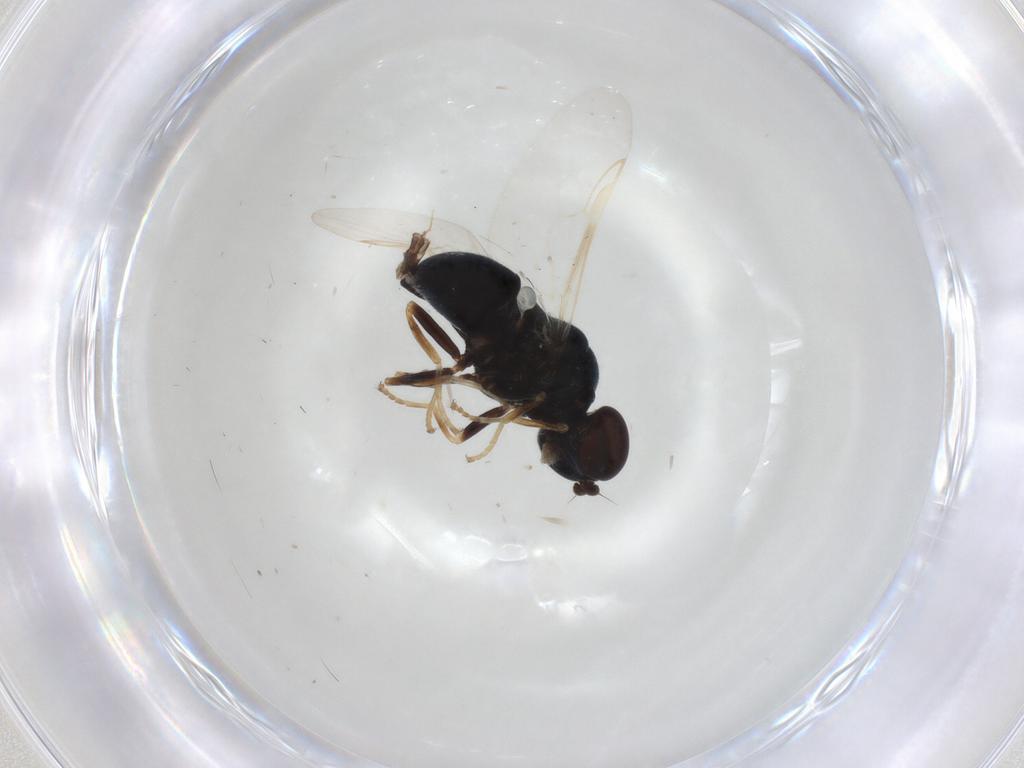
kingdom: Animalia
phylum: Arthropoda
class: Insecta
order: Diptera
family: Stratiomyidae
